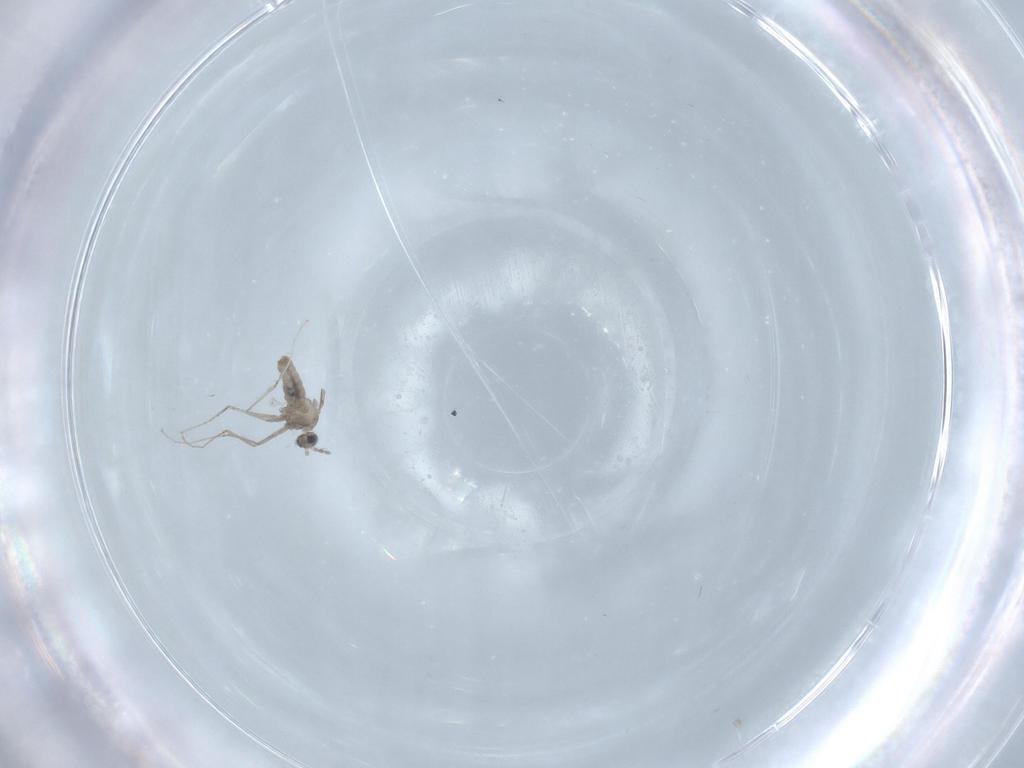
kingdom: Animalia
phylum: Arthropoda
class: Insecta
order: Diptera
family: Cecidomyiidae
